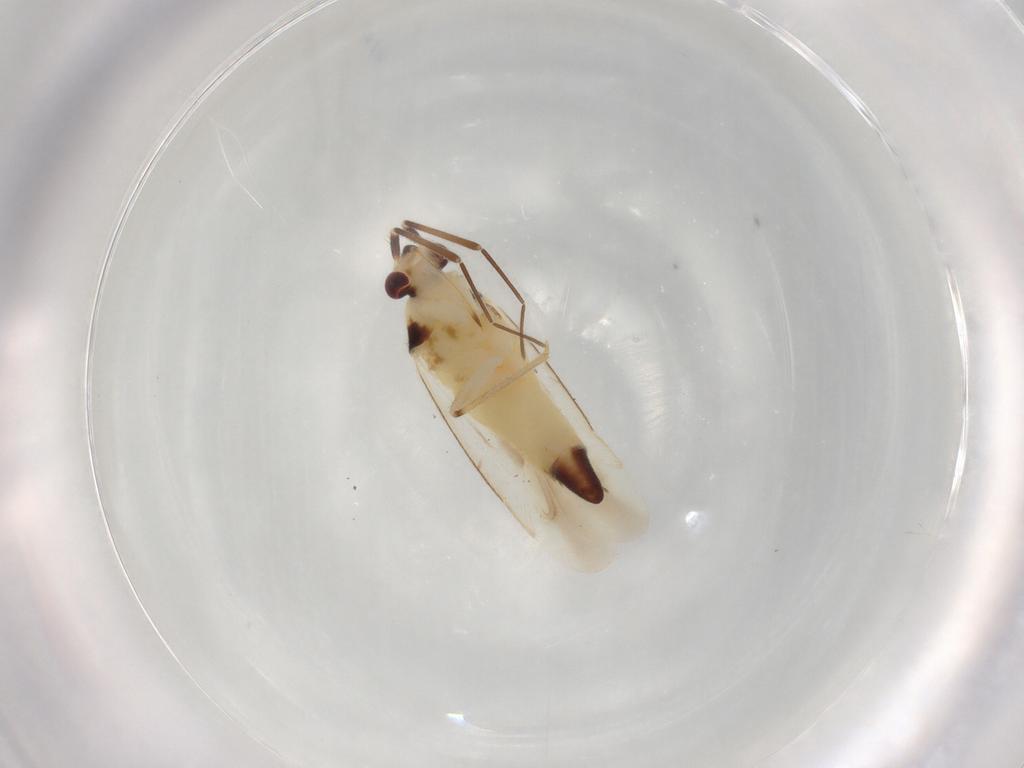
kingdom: Animalia
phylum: Arthropoda
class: Insecta
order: Hemiptera
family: Miridae
